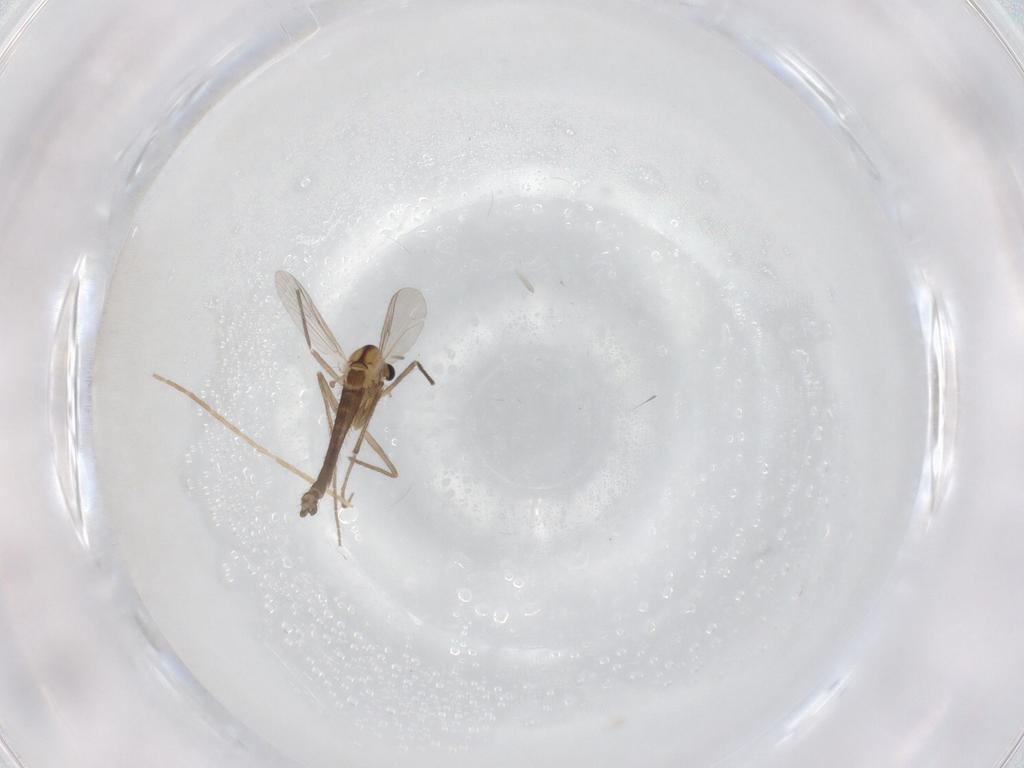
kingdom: Animalia
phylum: Arthropoda
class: Insecta
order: Diptera
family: Chironomidae
